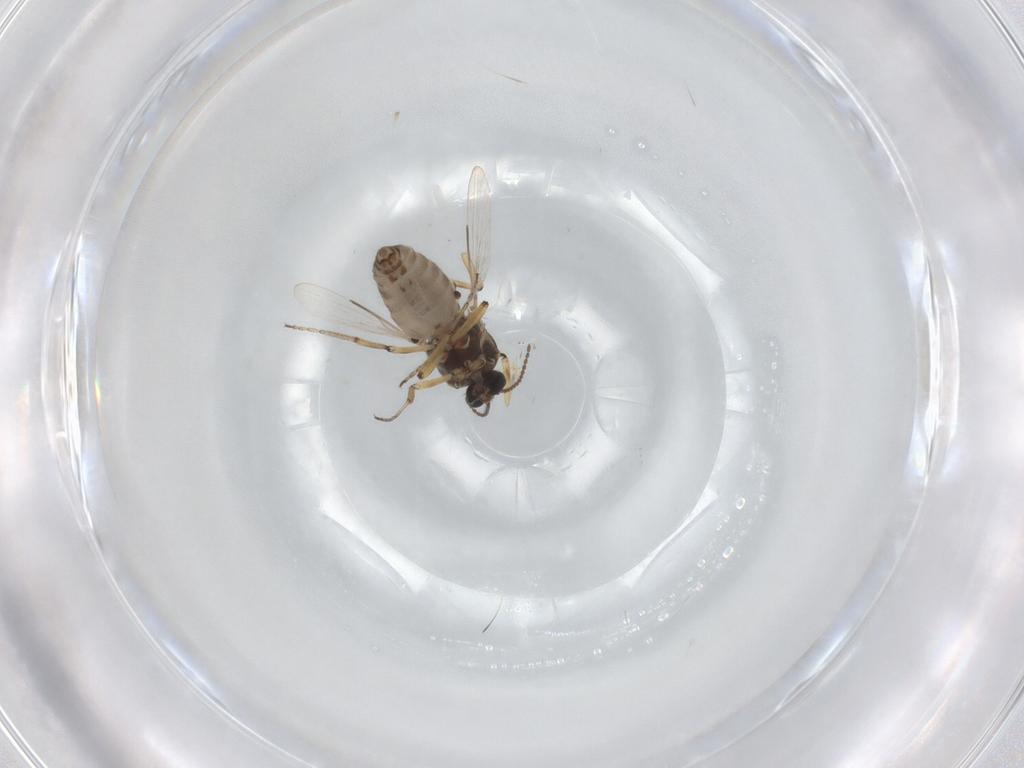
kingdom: Animalia
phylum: Arthropoda
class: Insecta
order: Diptera
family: Ceratopogonidae
